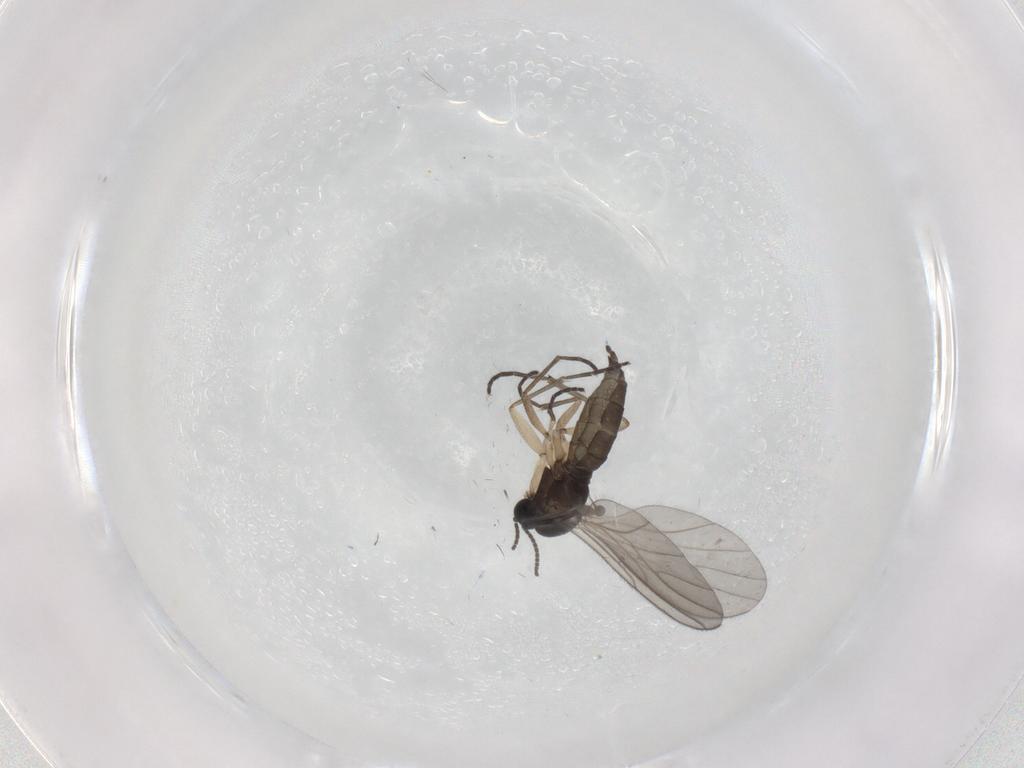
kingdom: Animalia
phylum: Arthropoda
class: Insecta
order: Diptera
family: Sciaridae
